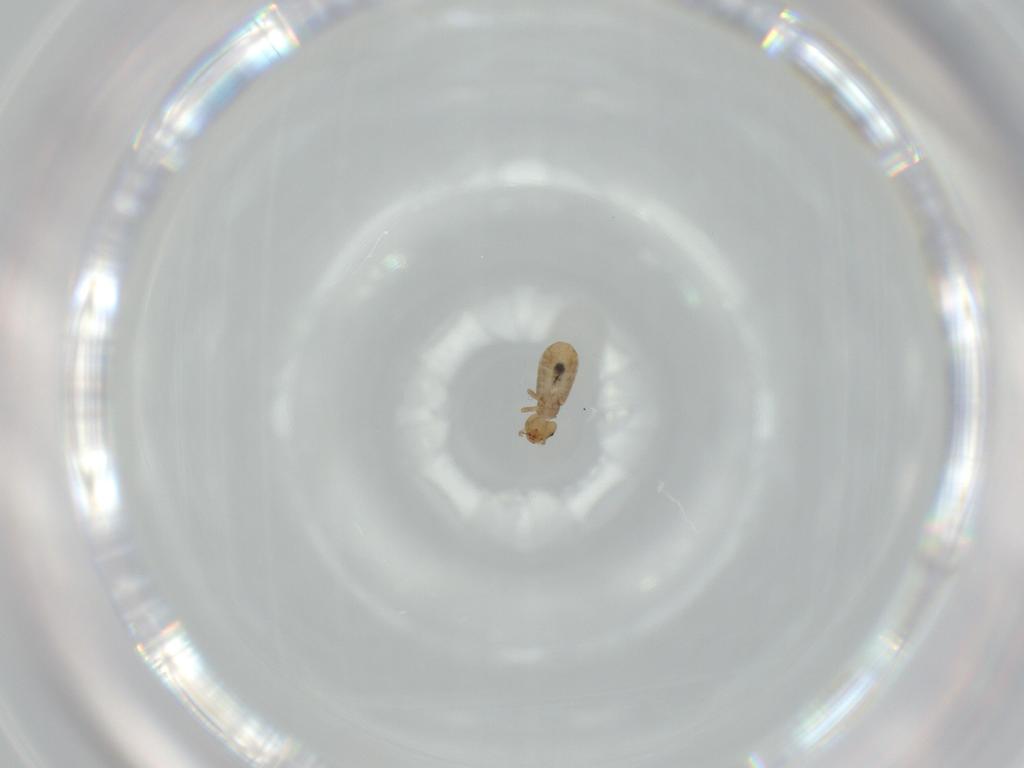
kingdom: Animalia
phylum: Arthropoda
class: Insecta
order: Psocodea
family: Liposcelididae
